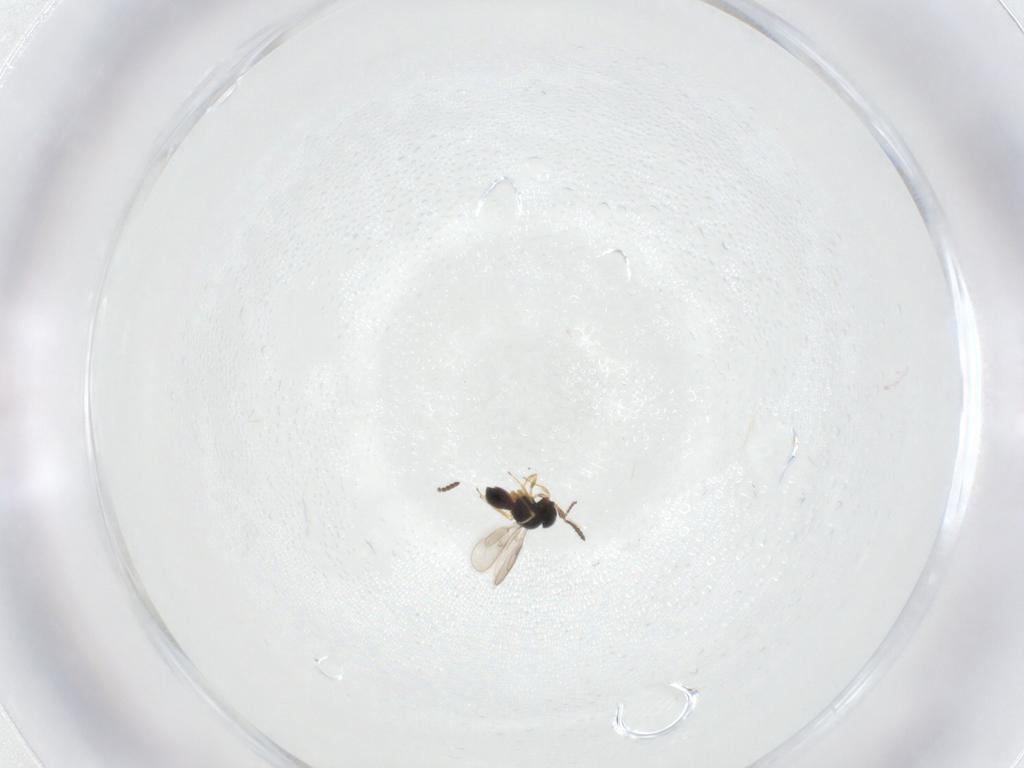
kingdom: Animalia
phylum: Arthropoda
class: Insecta
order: Hymenoptera
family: Scelionidae
